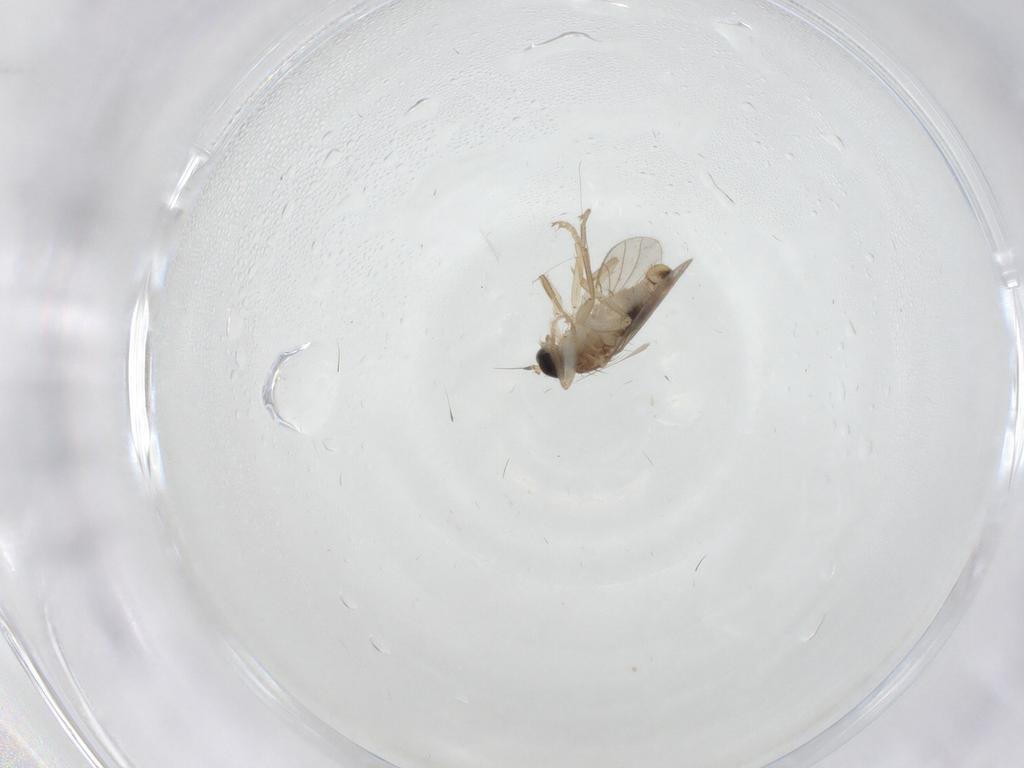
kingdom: Animalia
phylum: Arthropoda
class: Insecta
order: Diptera
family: Hybotidae
